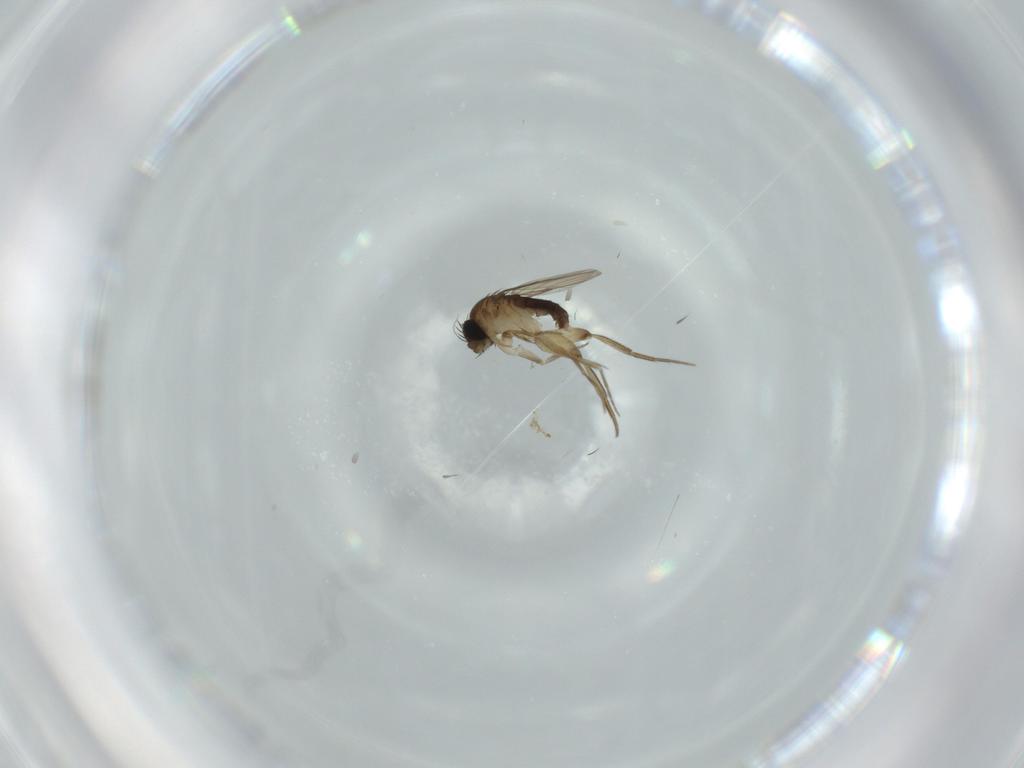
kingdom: Animalia
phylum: Arthropoda
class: Insecta
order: Diptera
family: Phoridae
